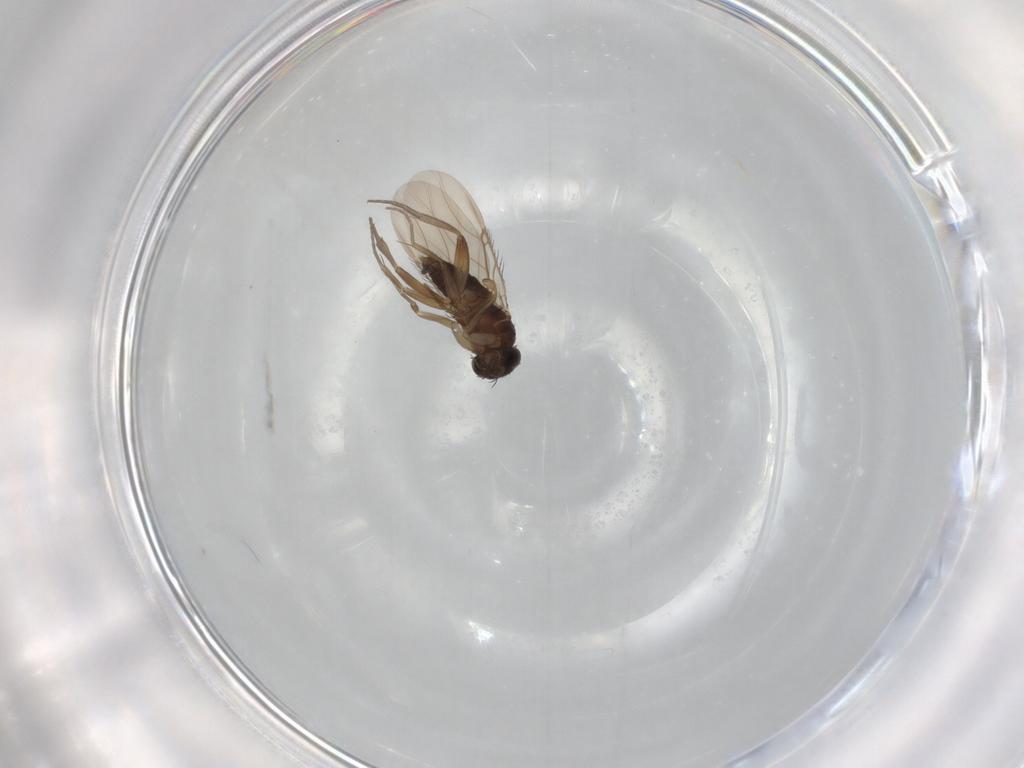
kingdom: Animalia
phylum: Arthropoda
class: Insecta
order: Diptera
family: Phoridae
